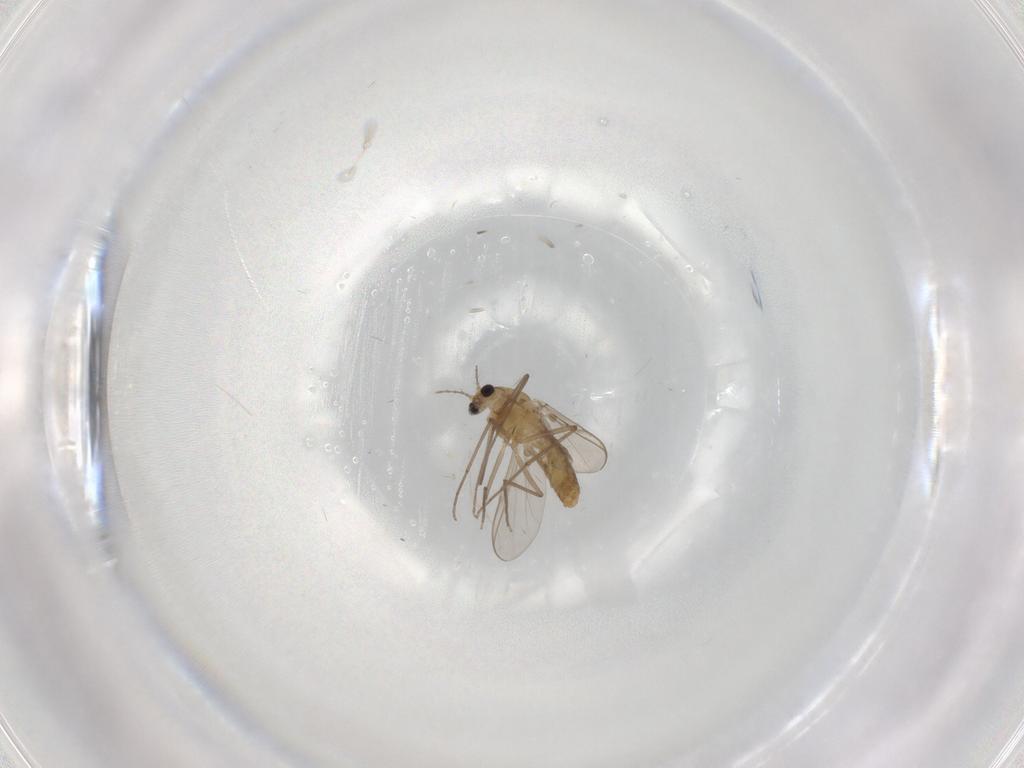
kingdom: Animalia
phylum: Arthropoda
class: Insecta
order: Diptera
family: Chironomidae
